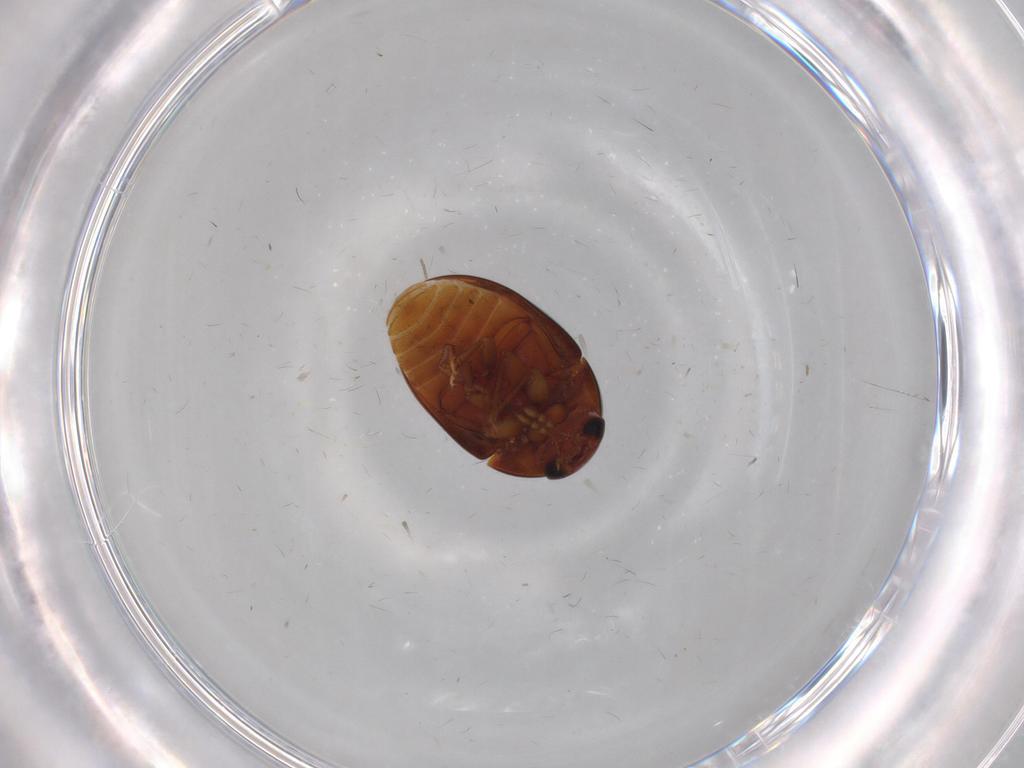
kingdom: Animalia
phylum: Arthropoda
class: Insecta
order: Coleoptera
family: Phalacridae
